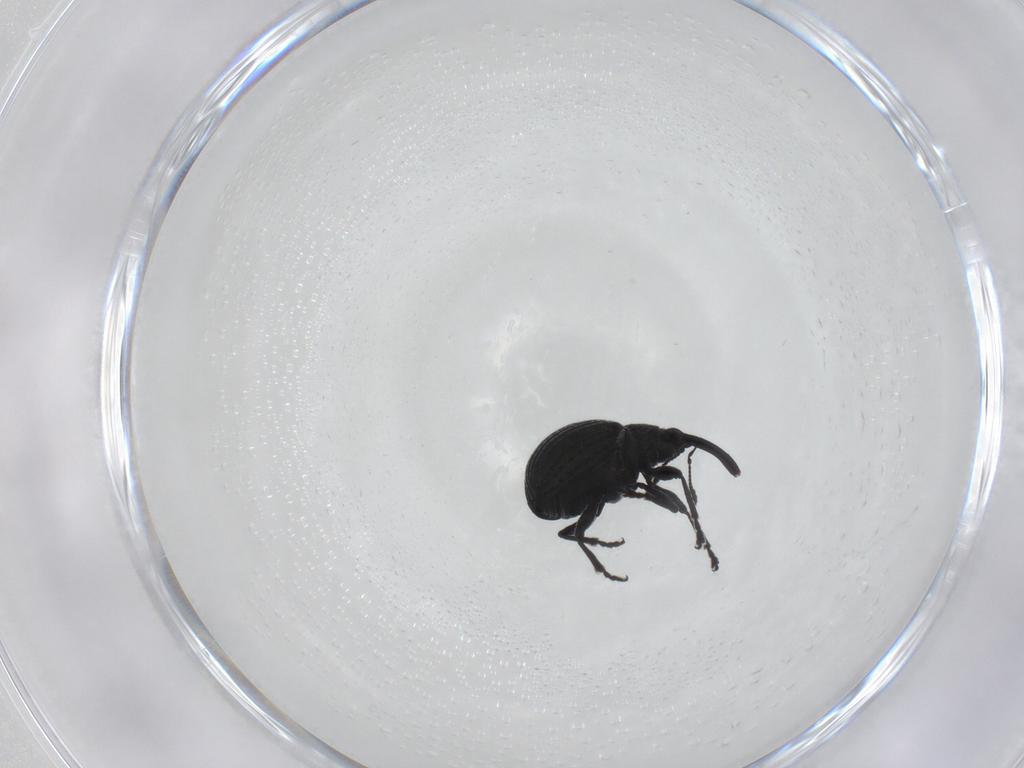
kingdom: Animalia
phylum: Arthropoda
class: Insecta
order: Coleoptera
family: Brentidae
